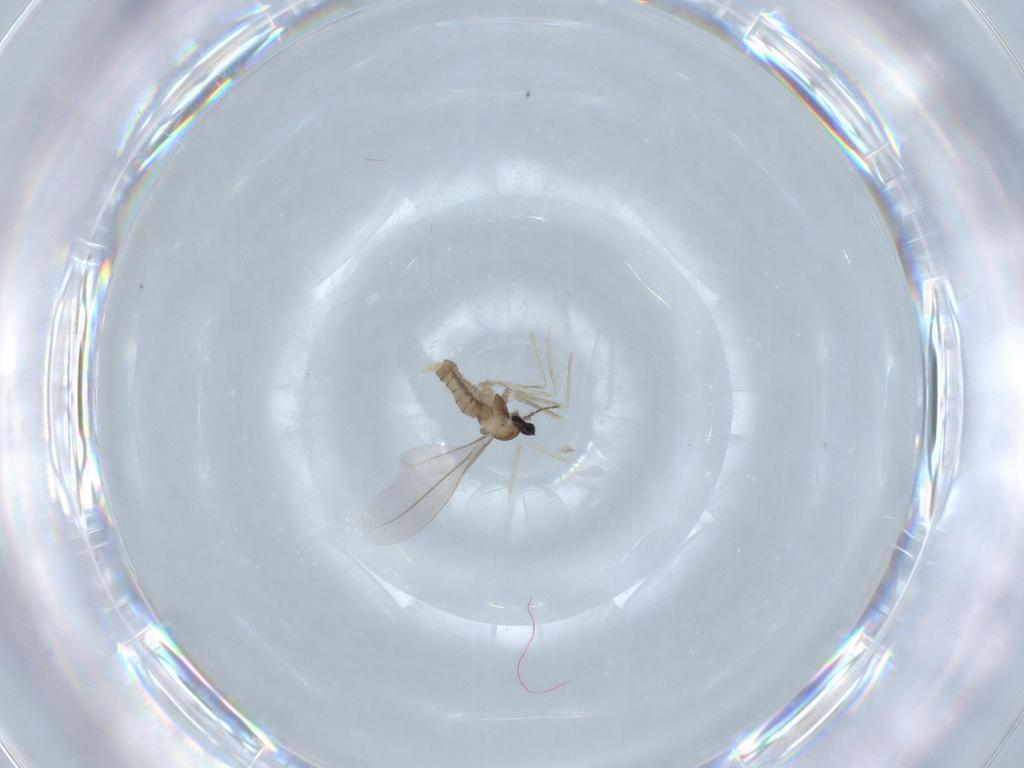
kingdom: Animalia
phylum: Arthropoda
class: Insecta
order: Diptera
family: Cecidomyiidae
